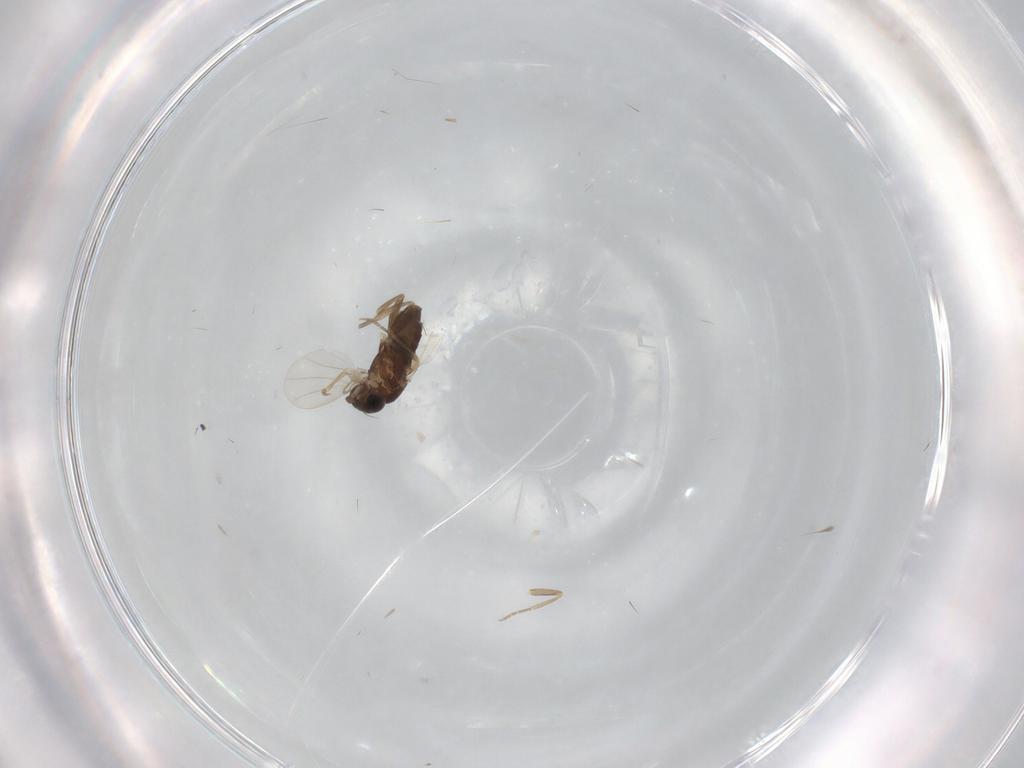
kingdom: Animalia
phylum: Arthropoda
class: Insecta
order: Diptera
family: Phoridae
